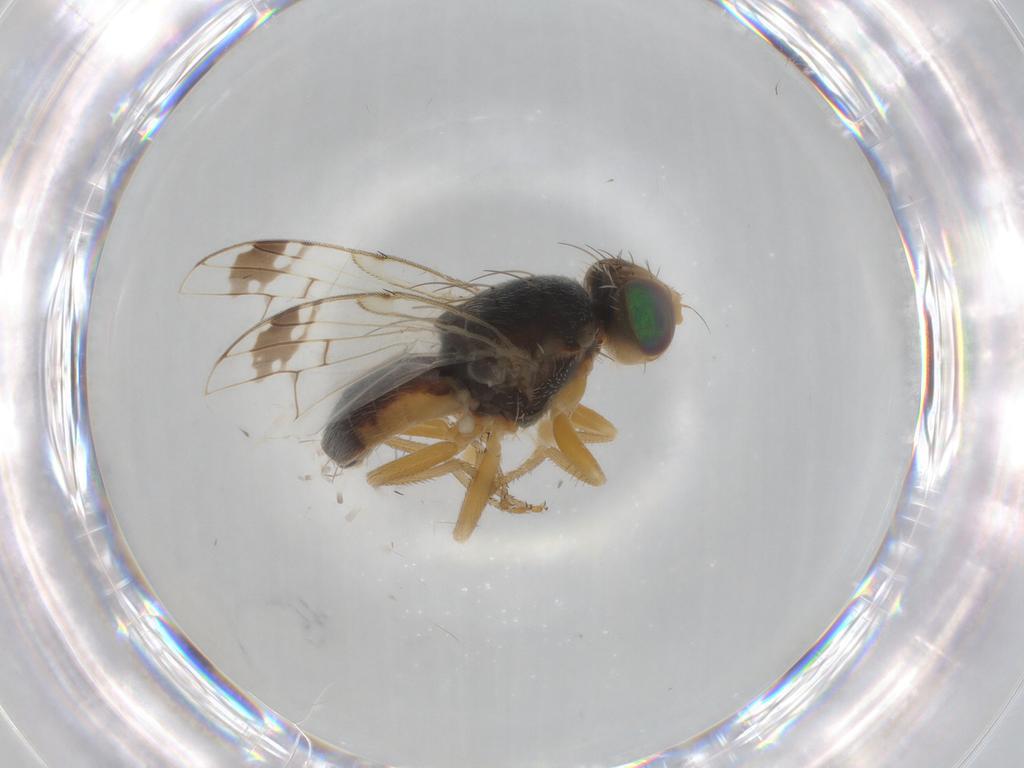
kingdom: Animalia
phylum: Arthropoda
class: Insecta
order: Diptera
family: Tephritidae
